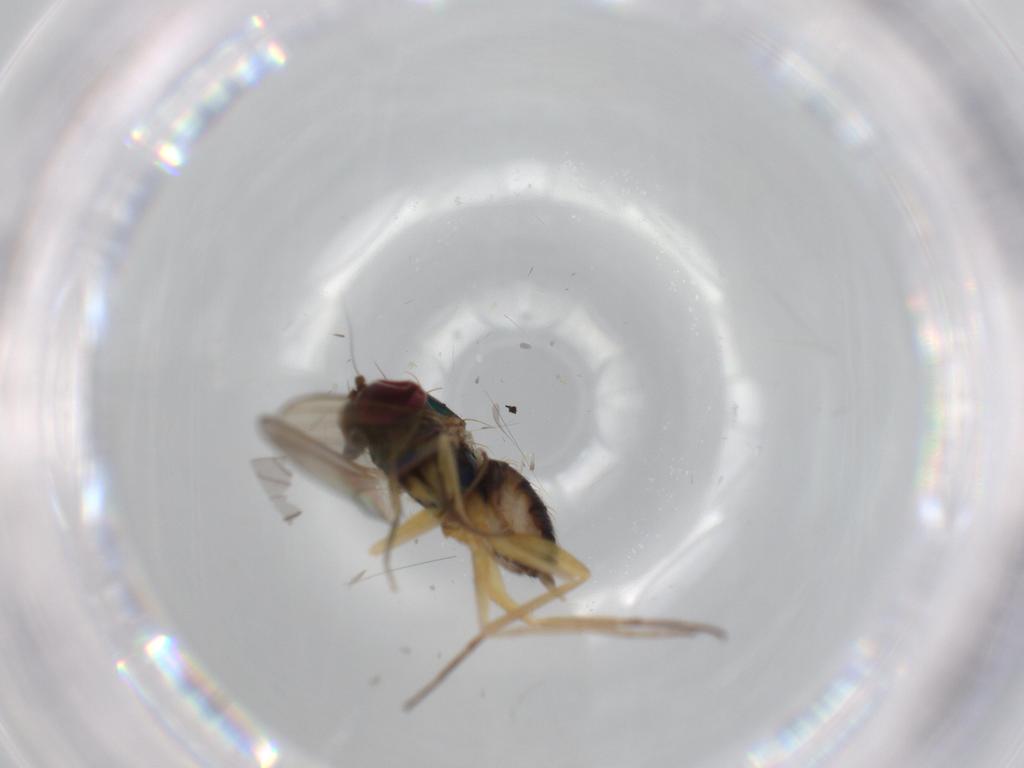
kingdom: Animalia
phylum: Arthropoda
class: Insecta
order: Diptera
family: Dolichopodidae
